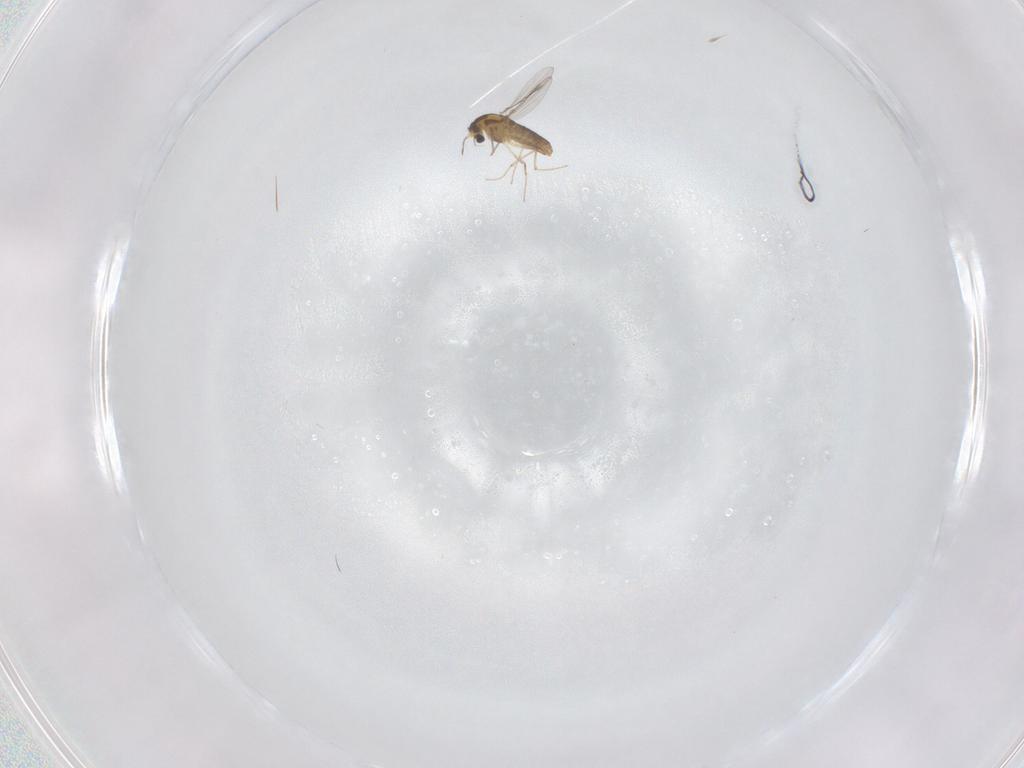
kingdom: Animalia
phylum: Arthropoda
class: Insecta
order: Diptera
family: Chironomidae
